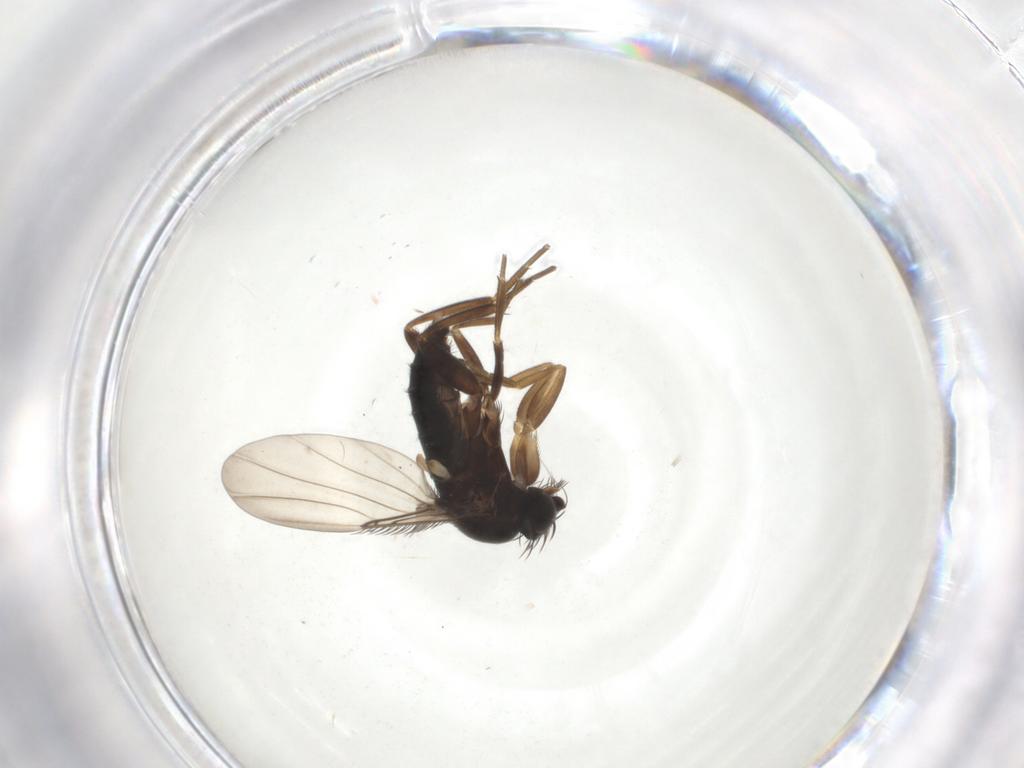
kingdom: Animalia
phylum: Arthropoda
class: Insecta
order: Diptera
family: Phoridae
